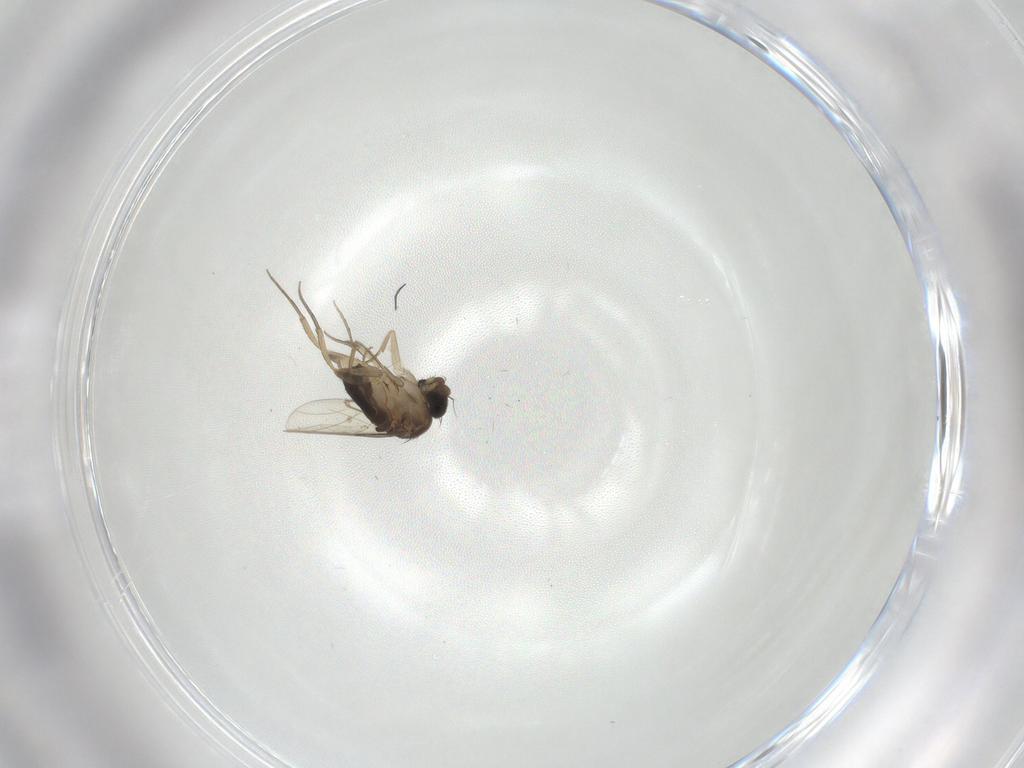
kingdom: Animalia
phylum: Arthropoda
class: Insecta
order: Diptera
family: Phoridae
